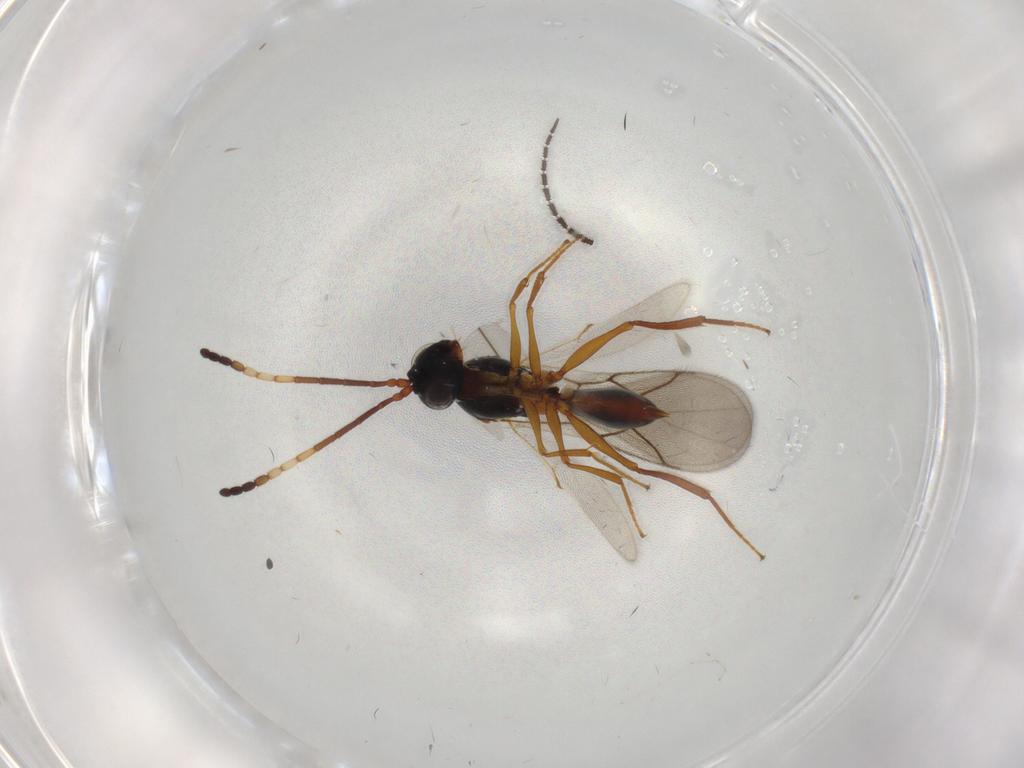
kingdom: Animalia
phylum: Arthropoda
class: Insecta
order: Hymenoptera
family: Figitidae
